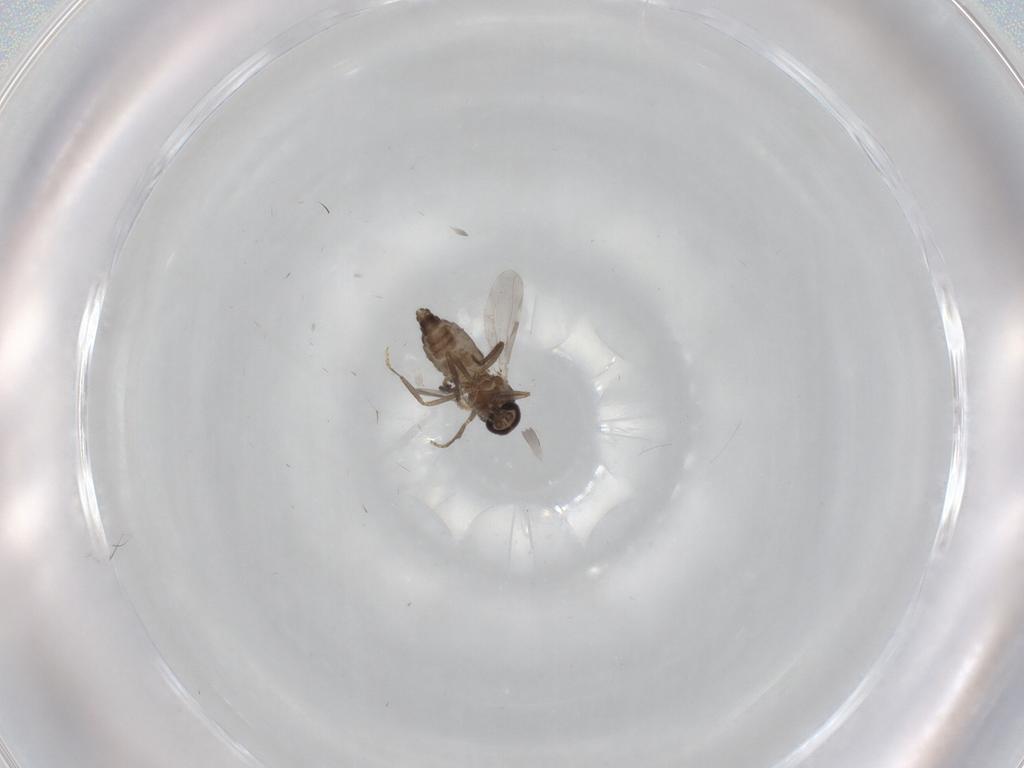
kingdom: Animalia
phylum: Arthropoda
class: Insecta
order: Diptera
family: Ceratopogonidae
